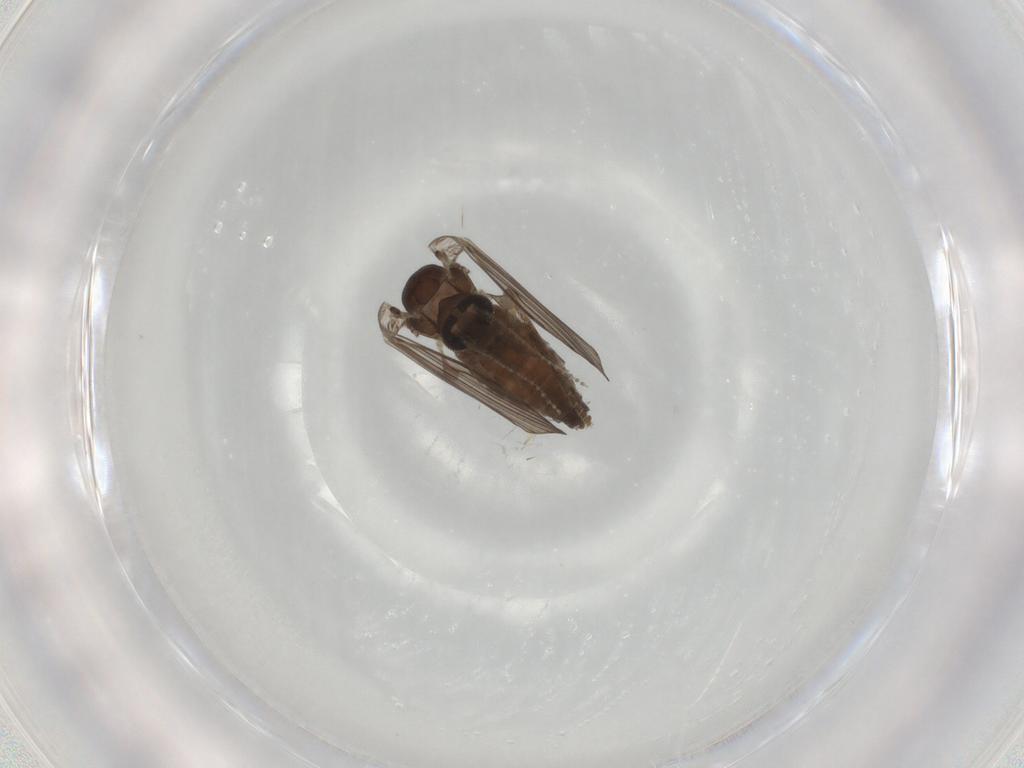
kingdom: Animalia
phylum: Arthropoda
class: Insecta
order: Diptera
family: Psychodidae
